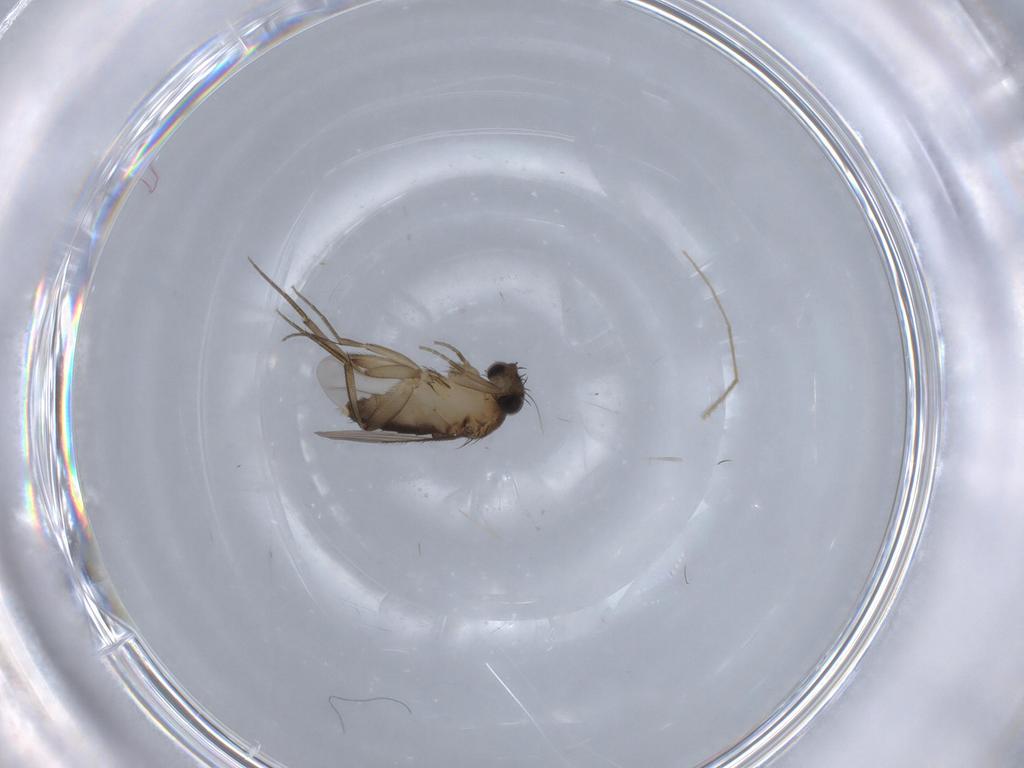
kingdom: Animalia
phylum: Arthropoda
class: Insecta
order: Diptera
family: Phoridae
